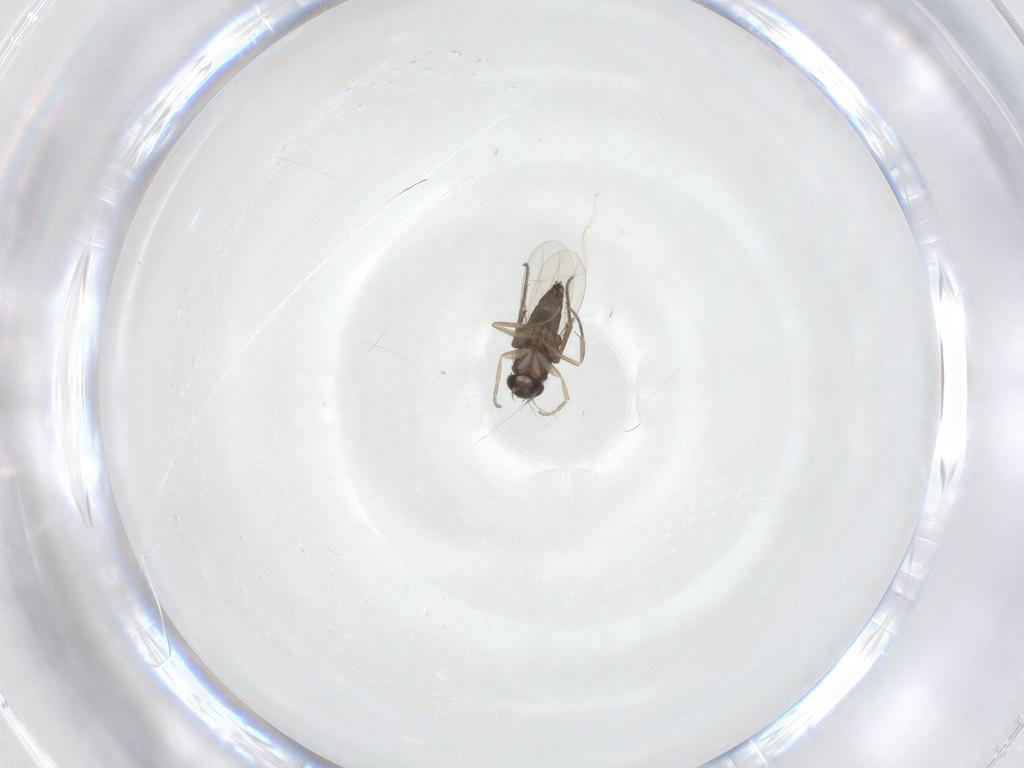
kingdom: Animalia
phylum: Arthropoda
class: Insecta
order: Diptera
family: Phoridae
